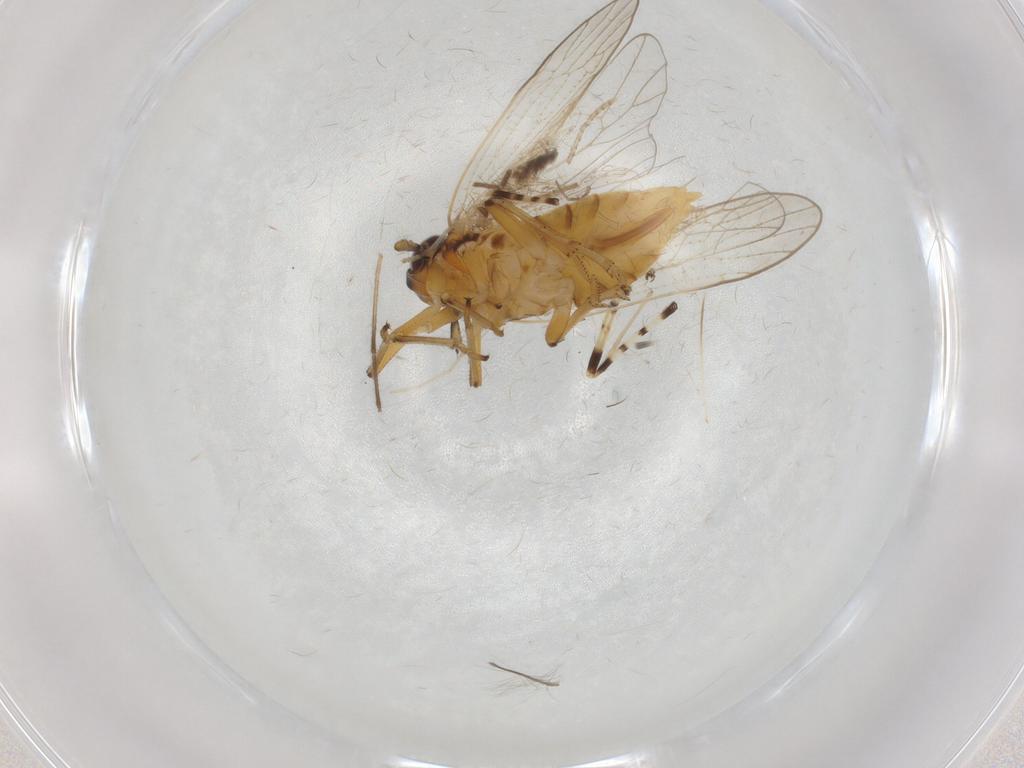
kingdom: Animalia
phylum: Arthropoda
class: Insecta
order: Hemiptera
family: Delphacidae
